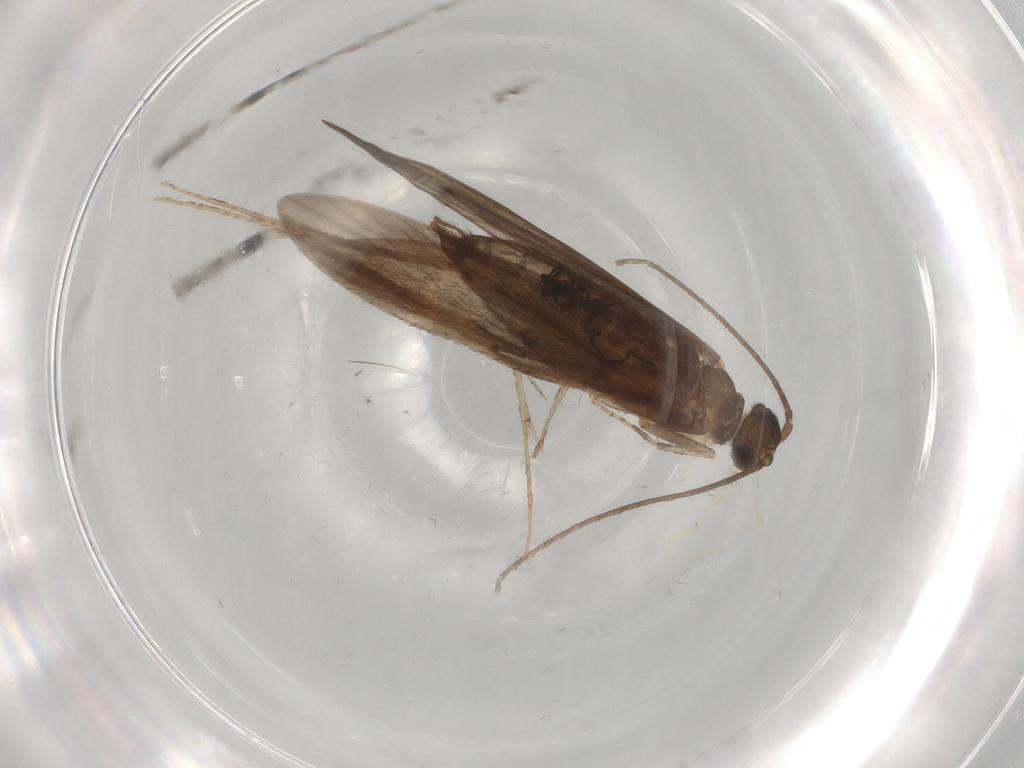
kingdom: Animalia
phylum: Arthropoda
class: Insecta
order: Trichoptera
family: Xiphocentronidae
